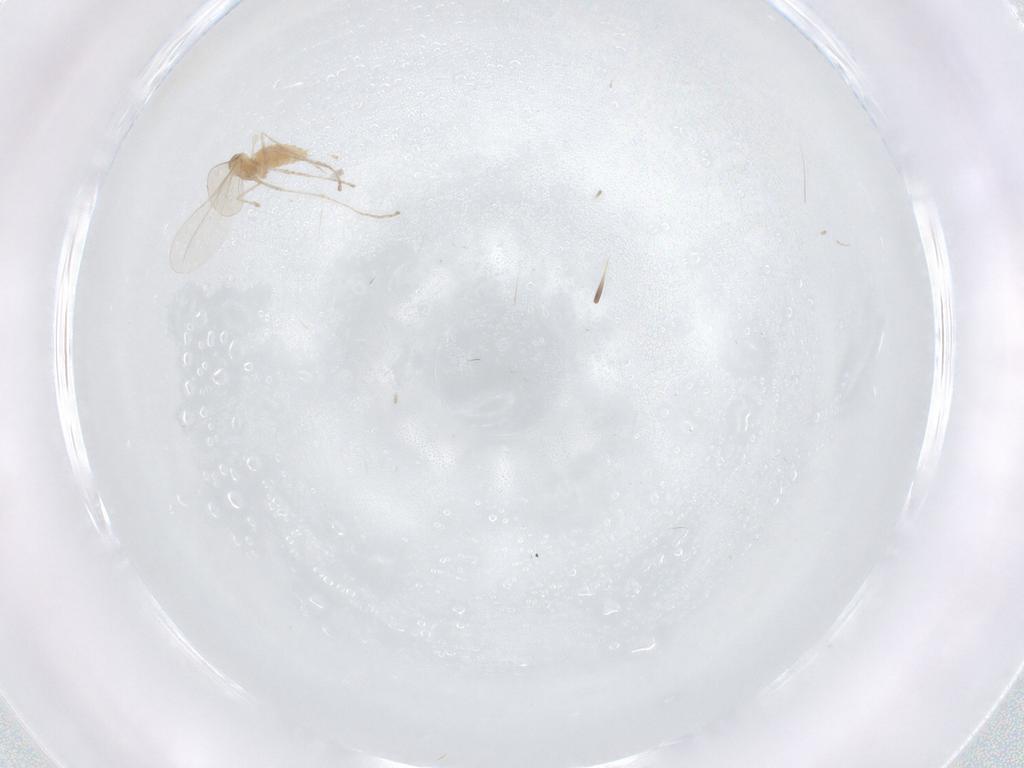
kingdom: Animalia
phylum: Arthropoda
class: Insecta
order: Diptera
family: Cecidomyiidae
